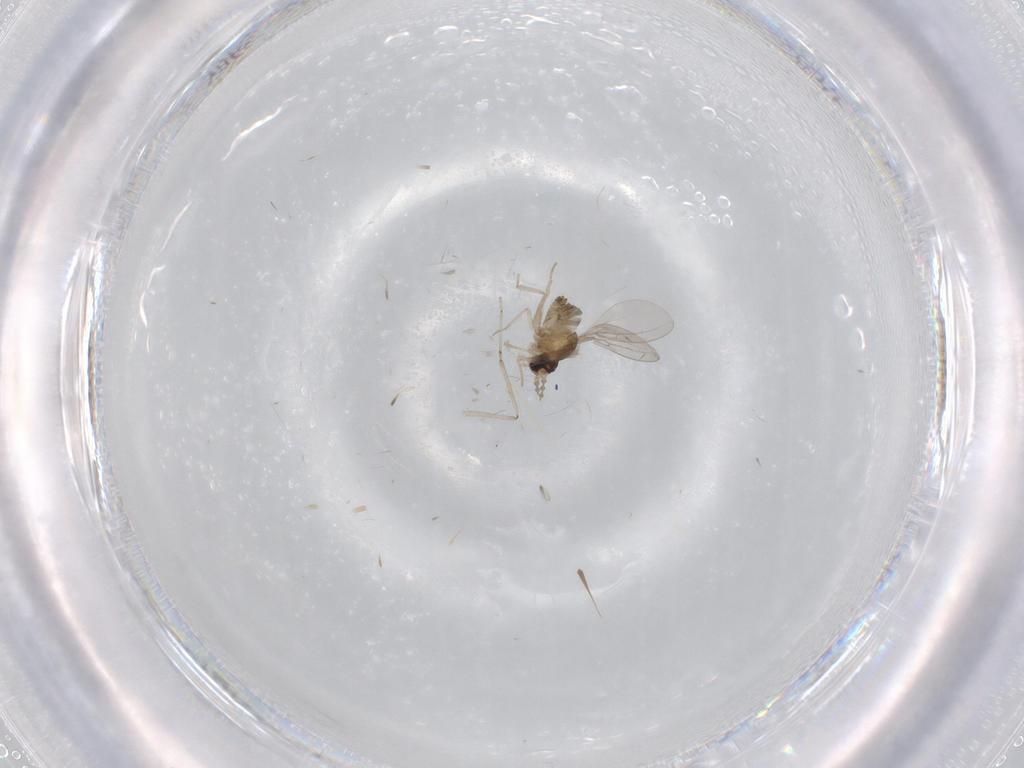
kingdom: Animalia
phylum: Arthropoda
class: Insecta
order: Diptera
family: Cecidomyiidae
